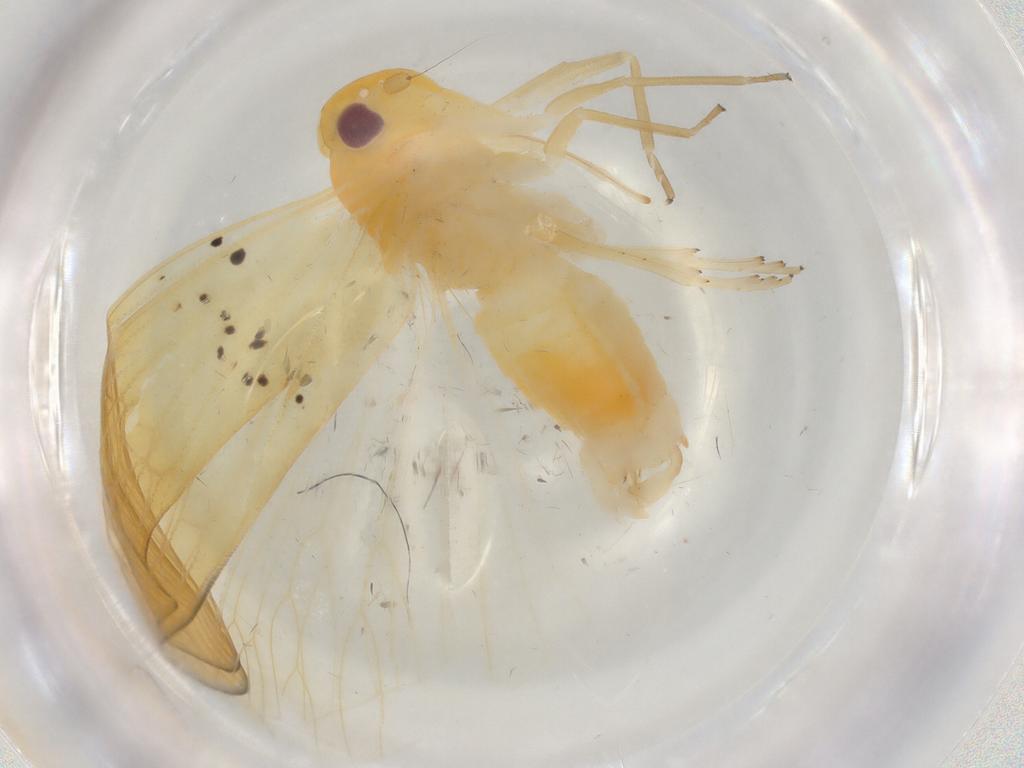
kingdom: Animalia
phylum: Arthropoda
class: Insecta
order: Hemiptera
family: Cixiidae
